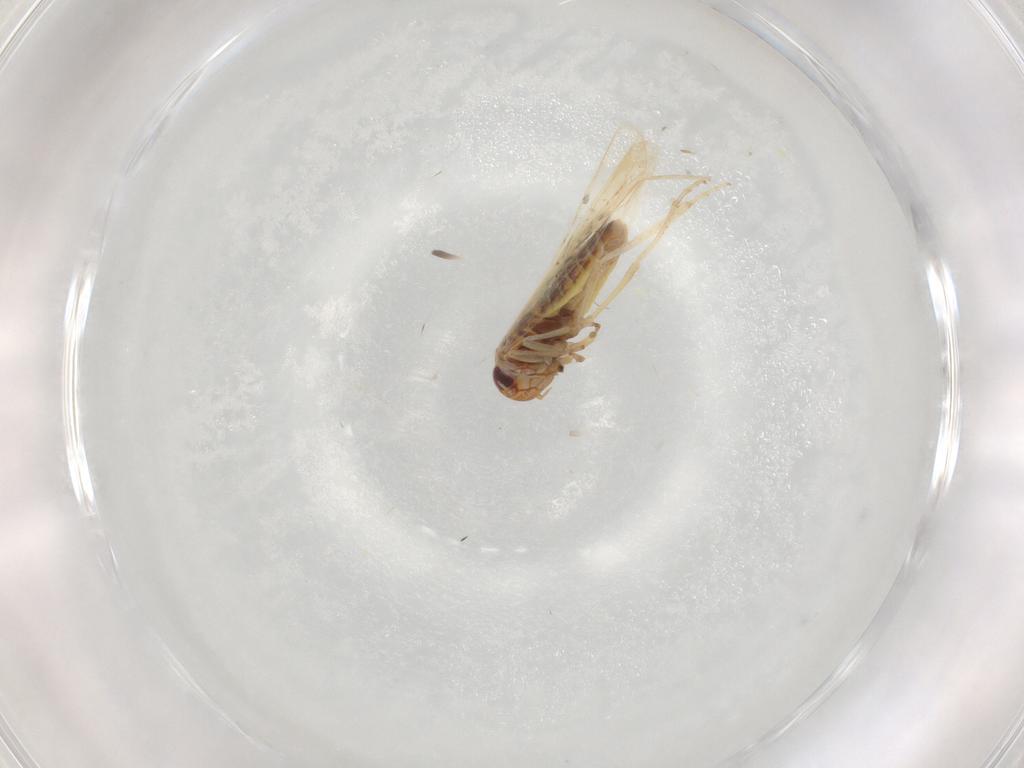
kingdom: Animalia
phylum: Arthropoda
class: Insecta
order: Hemiptera
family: Cicadellidae
